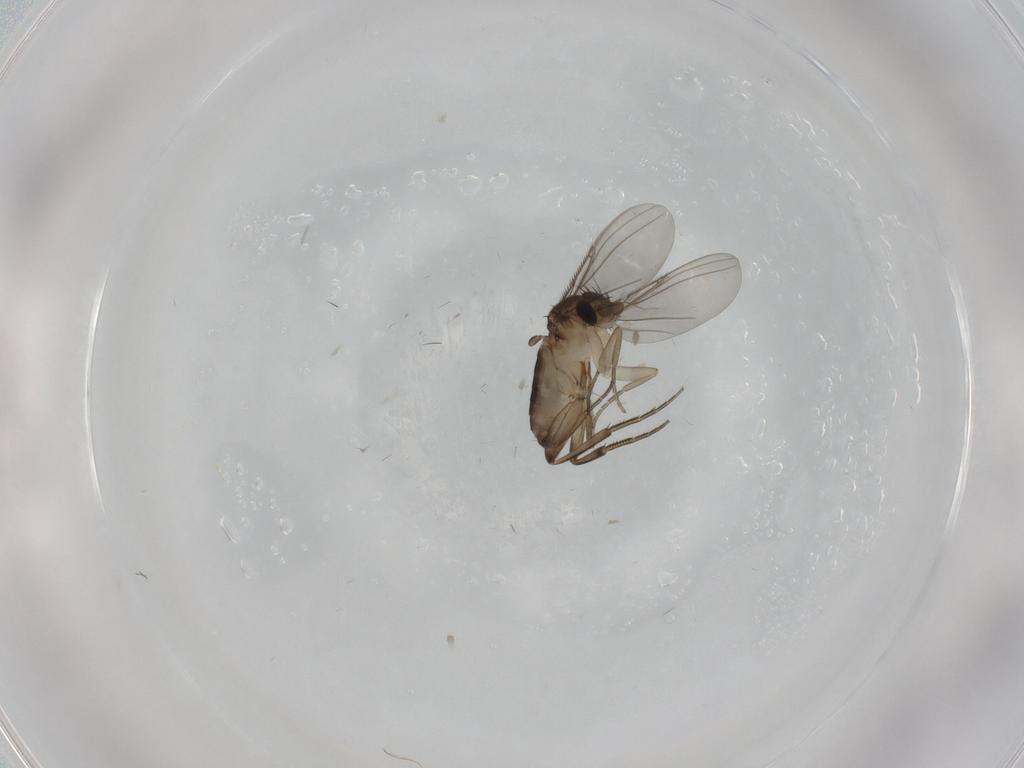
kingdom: Animalia
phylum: Arthropoda
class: Insecta
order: Diptera
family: Phoridae
